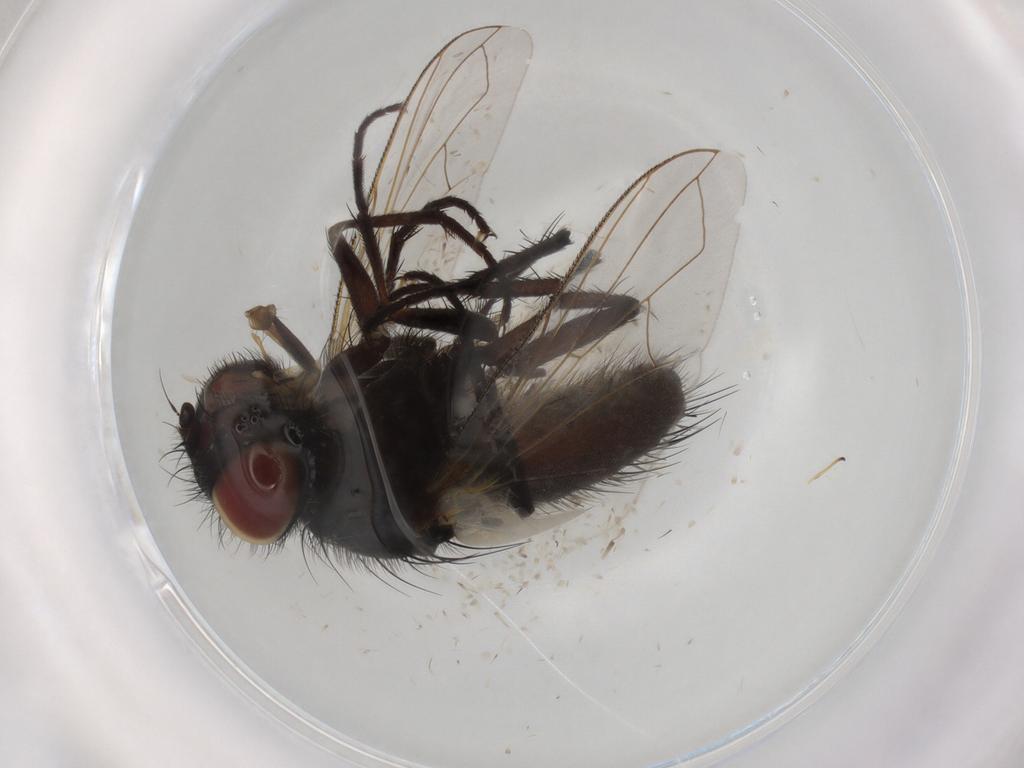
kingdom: Animalia
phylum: Arthropoda
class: Insecta
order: Diptera
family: Cecidomyiidae
